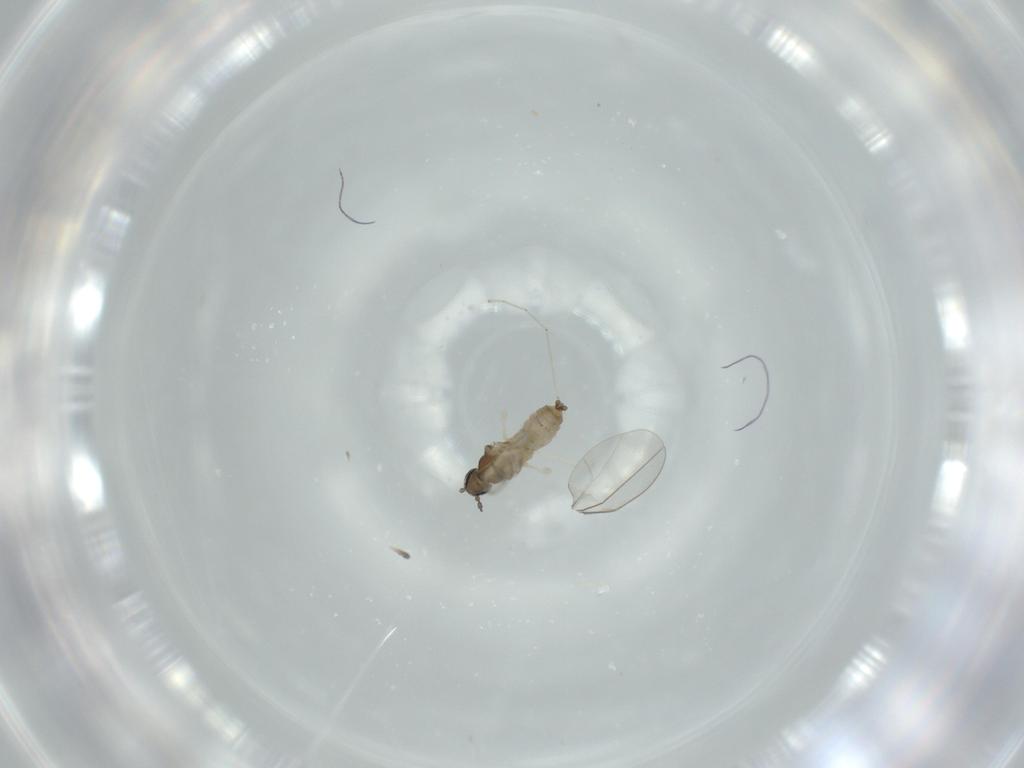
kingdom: Animalia
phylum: Arthropoda
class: Insecta
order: Diptera
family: Cecidomyiidae
